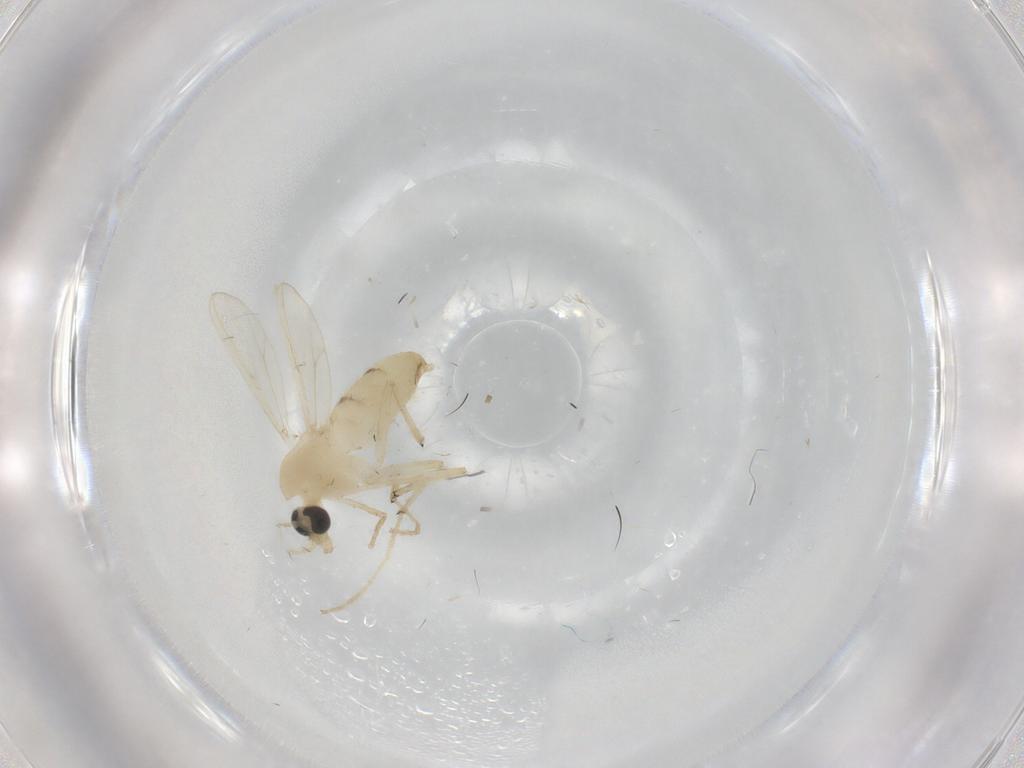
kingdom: Animalia
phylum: Arthropoda
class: Insecta
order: Diptera
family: Chironomidae
